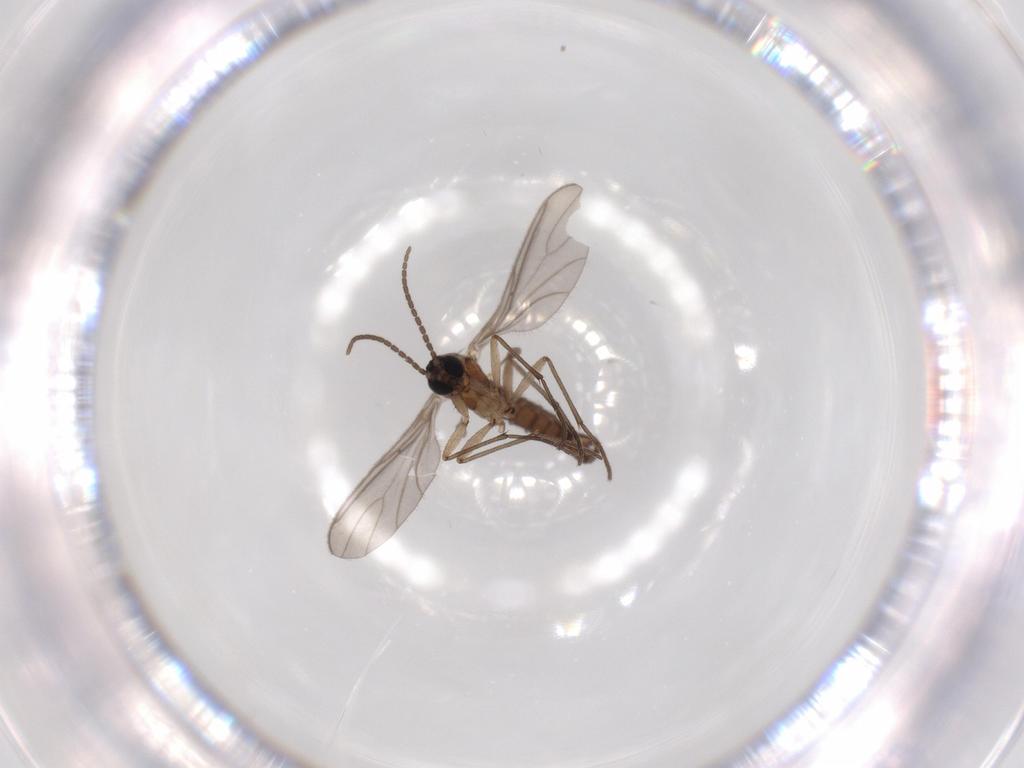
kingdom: Animalia
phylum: Arthropoda
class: Insecta
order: Diptera
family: Sciaridae
